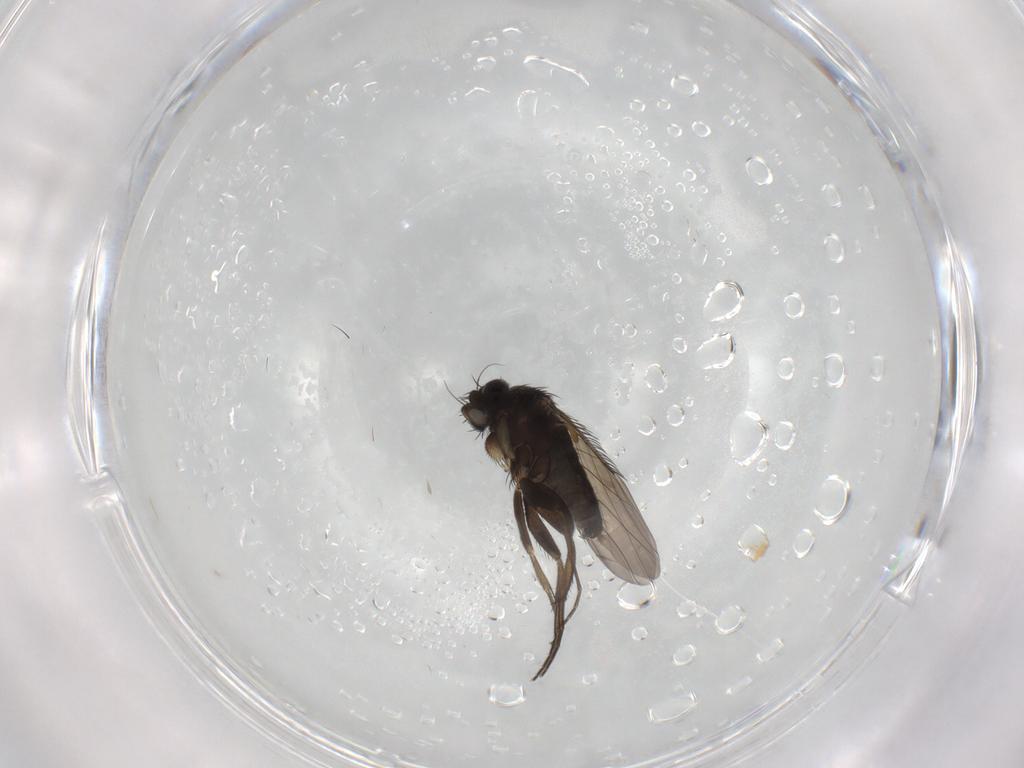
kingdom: Animalia
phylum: Arthropoda
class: Insecta
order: Diptera
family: Phoridae
